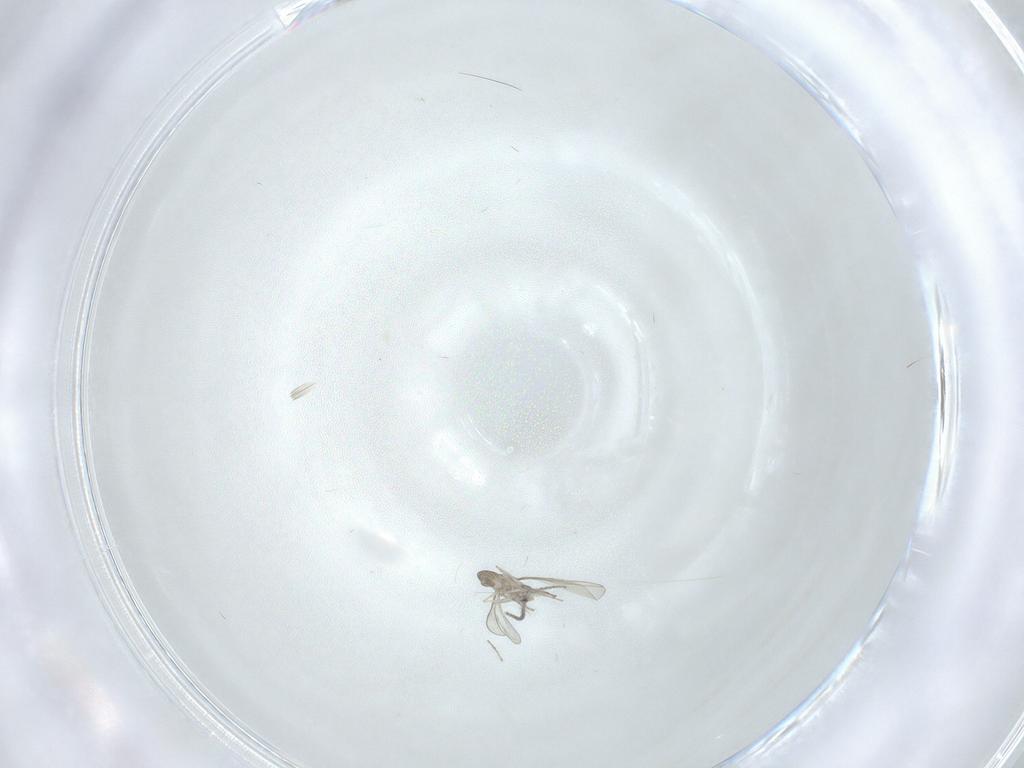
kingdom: Animalia
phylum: Arthropoda
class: Insecta
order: Diptera
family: Cecidomyiidae
